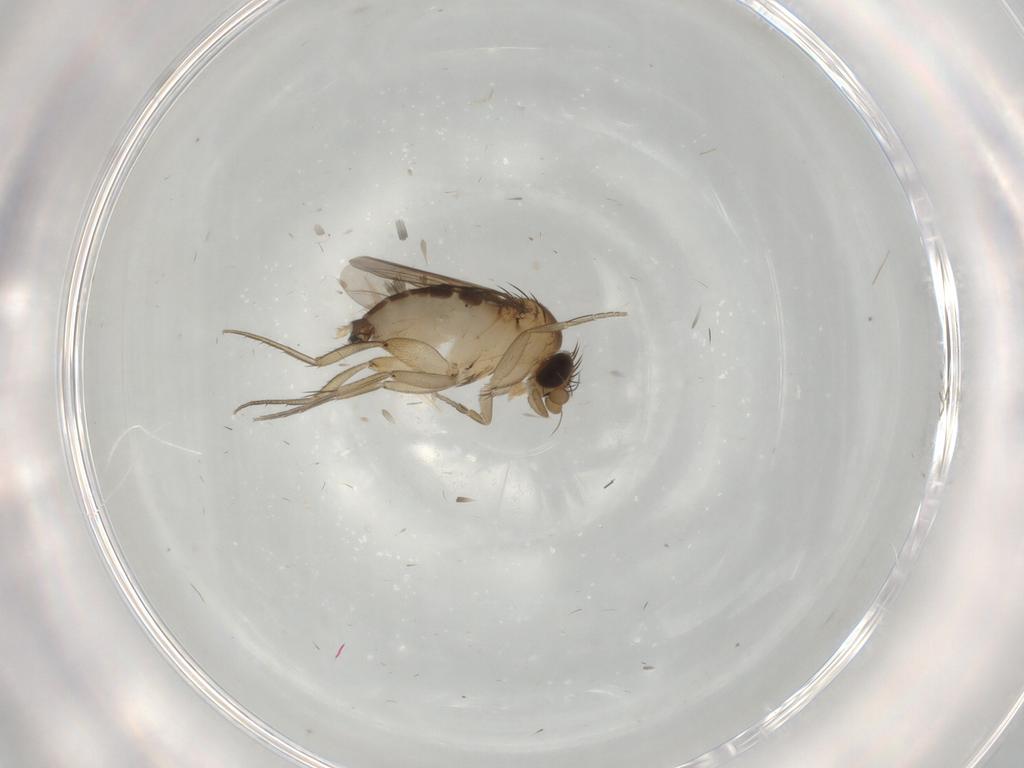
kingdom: Animalia
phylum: Arthropoda
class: Insecta
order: Diptera
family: Phoridae
